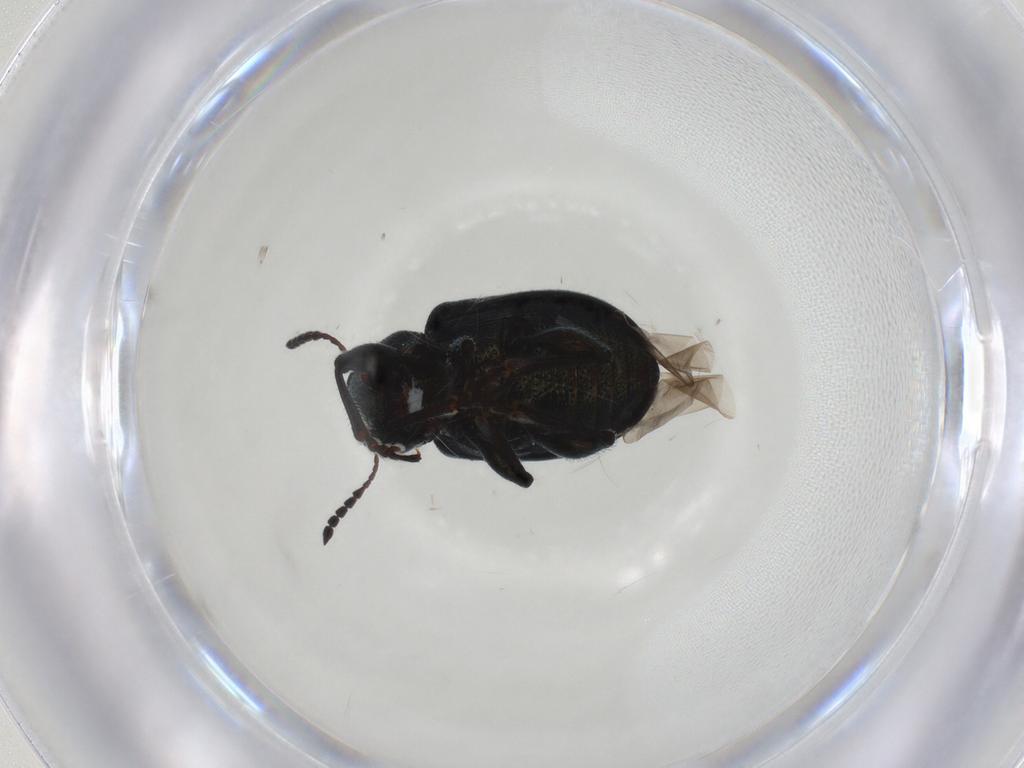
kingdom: Animalia
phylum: Arthropoda
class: Insecta
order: Coleoptera
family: Chrysomelidae
